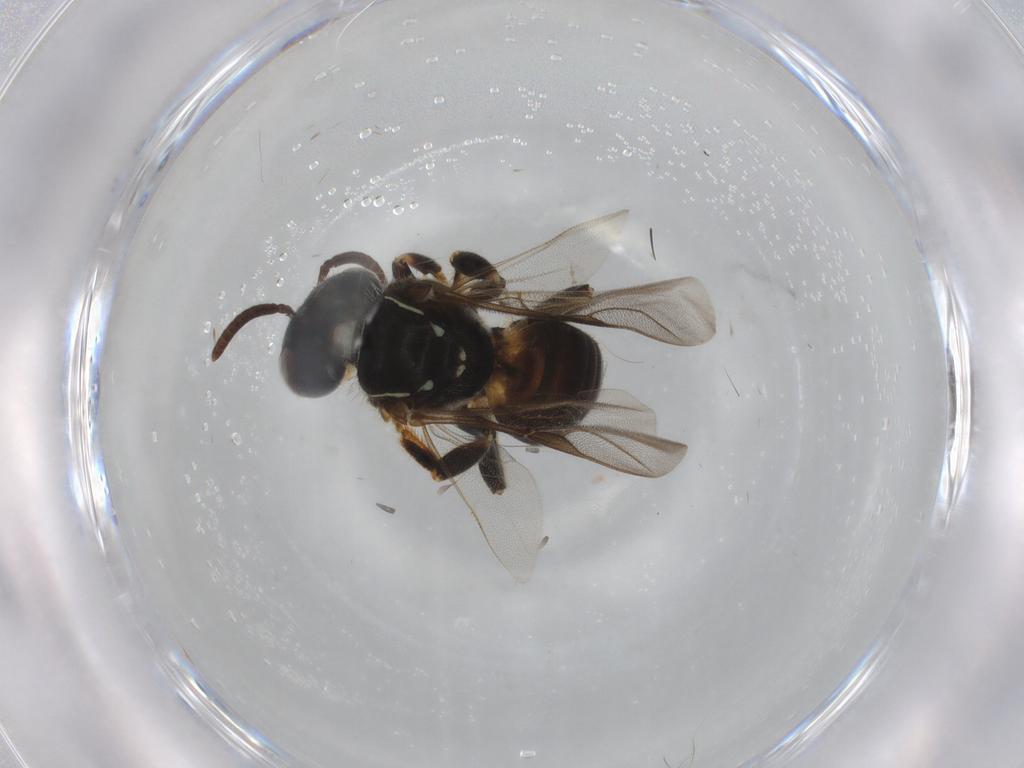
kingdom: Animalia
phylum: Arthropoda
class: Insecta
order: Hymenoptera
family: Apidae
